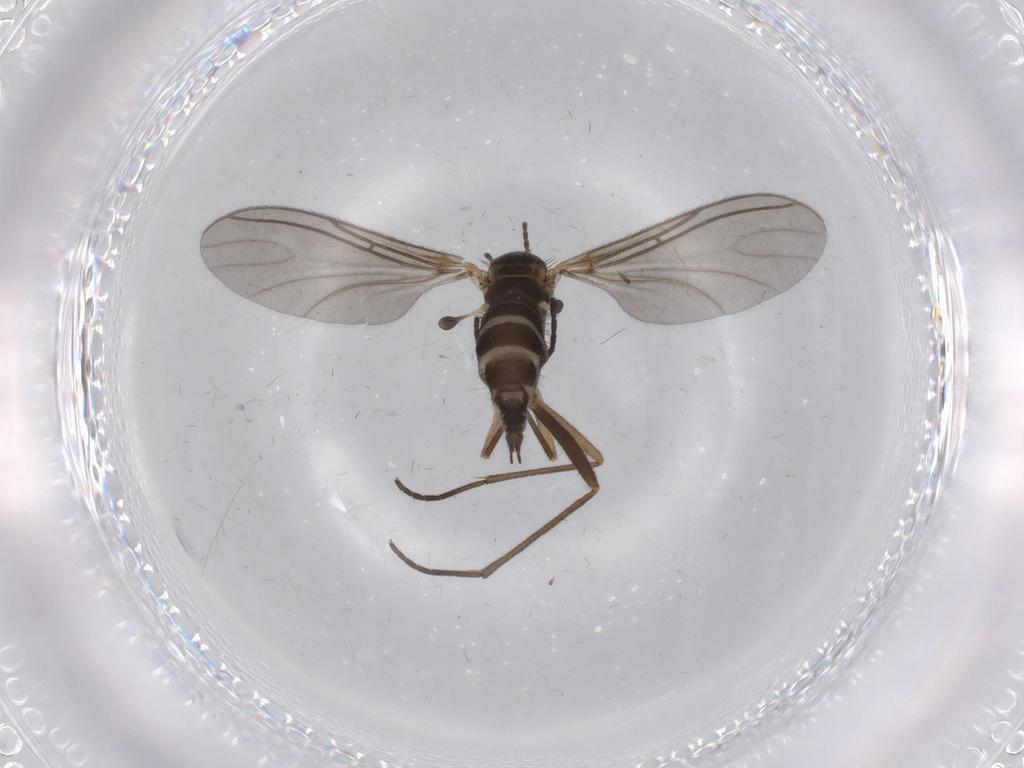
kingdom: Animalia
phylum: Arthropoda
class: Insecta
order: Diptera
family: Sciaridae
